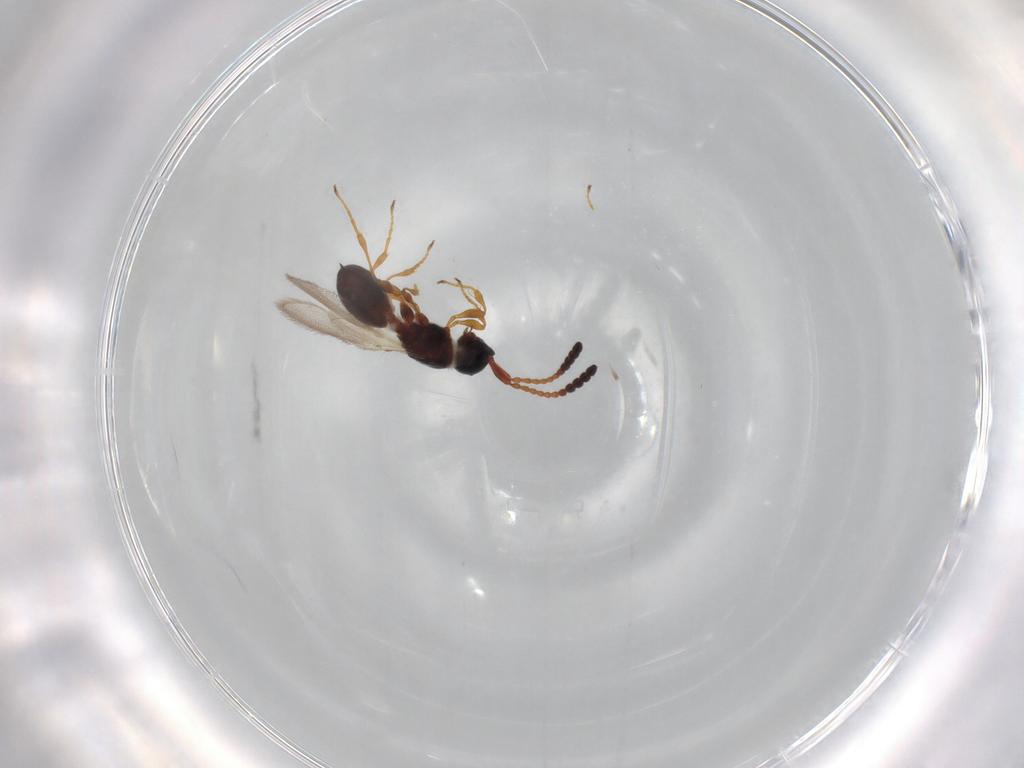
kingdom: Animalia
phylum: Arthropoda
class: Insecta
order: Hymenoptera
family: Diapriidae
